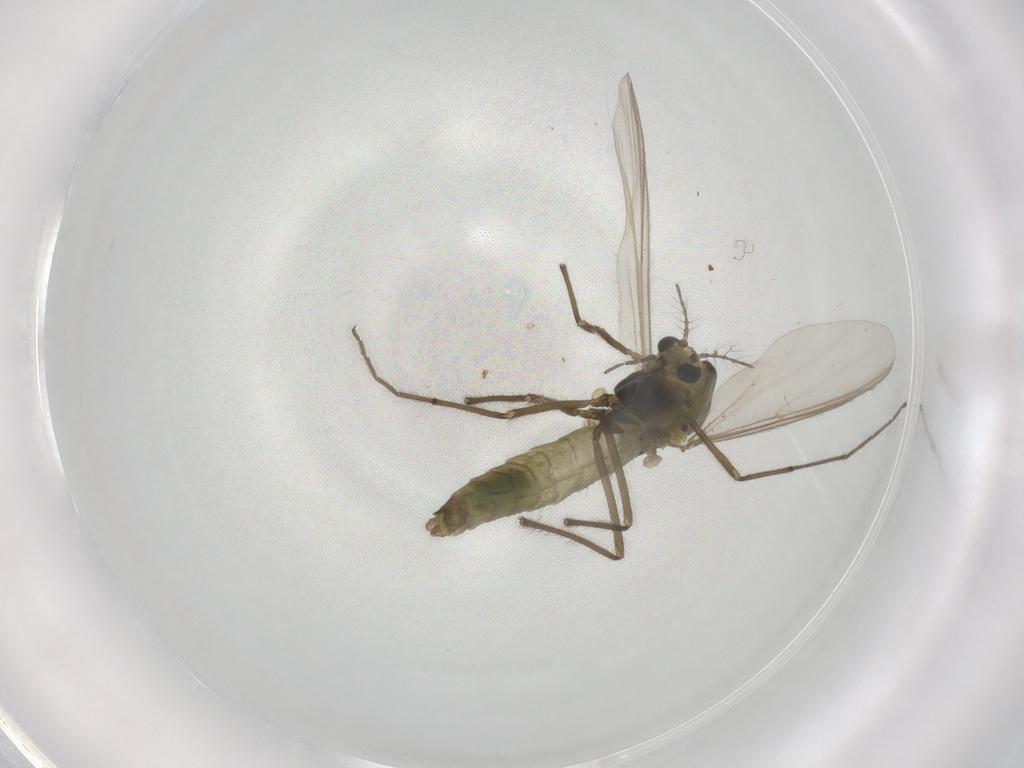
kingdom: Animalia
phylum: Arthropoda
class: Insecta
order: Diptera
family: Chironomidae
